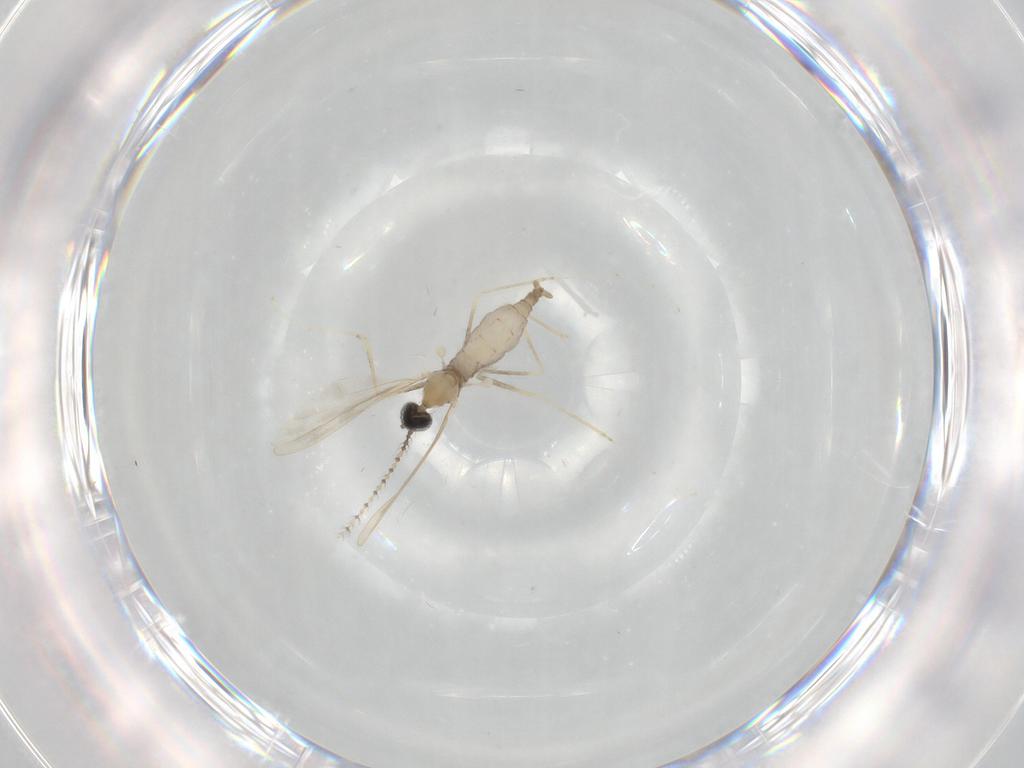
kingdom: Animalia
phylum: Arthropoda
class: Insecta
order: Diptera
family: Cecidomyiidae
